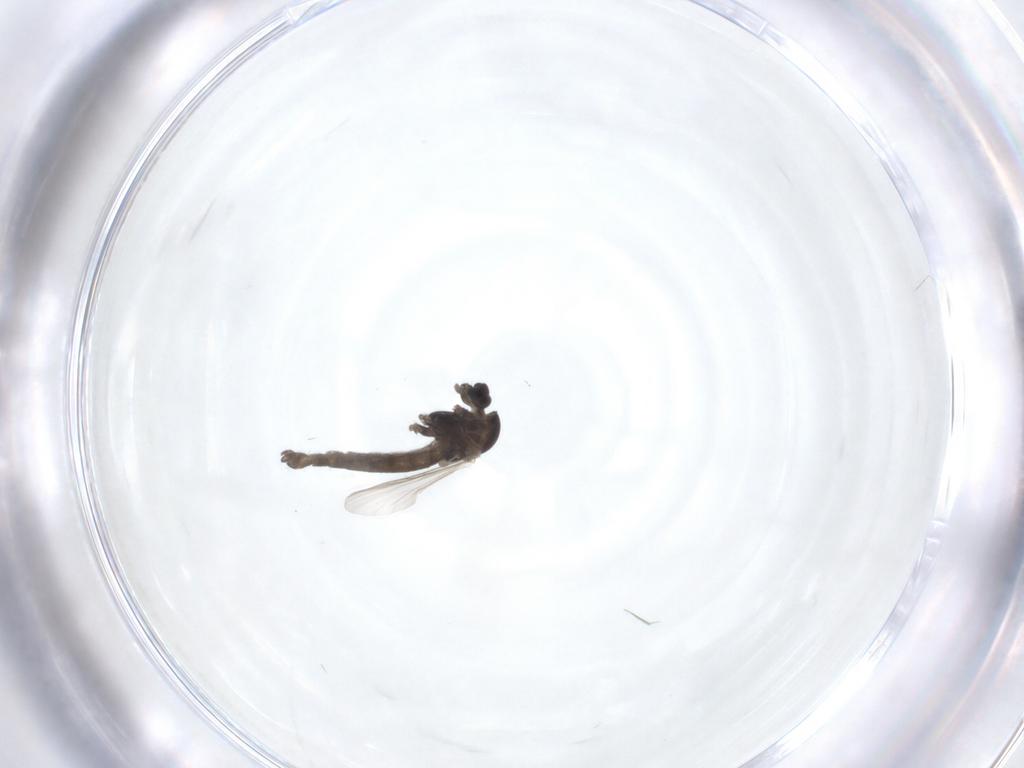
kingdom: Animalia
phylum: Arthropoda
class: Insecta
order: Diptera
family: Chironomidae
